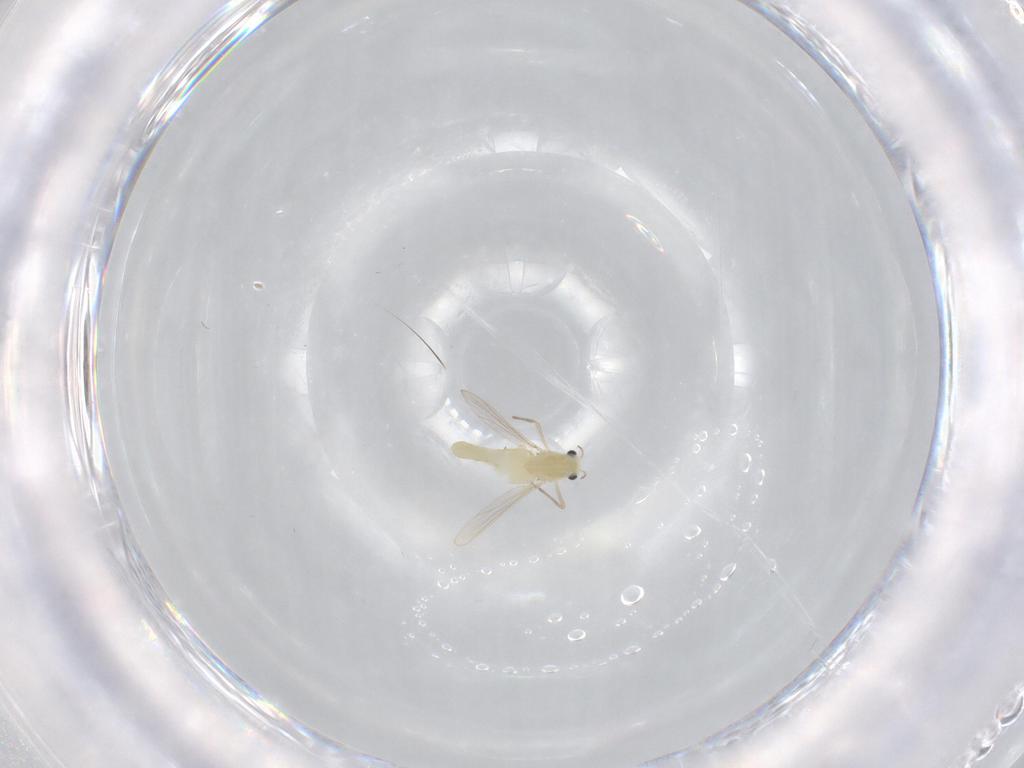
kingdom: Animalia
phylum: Arthropoda
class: Insecta
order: Diptera
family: Chironomidae
